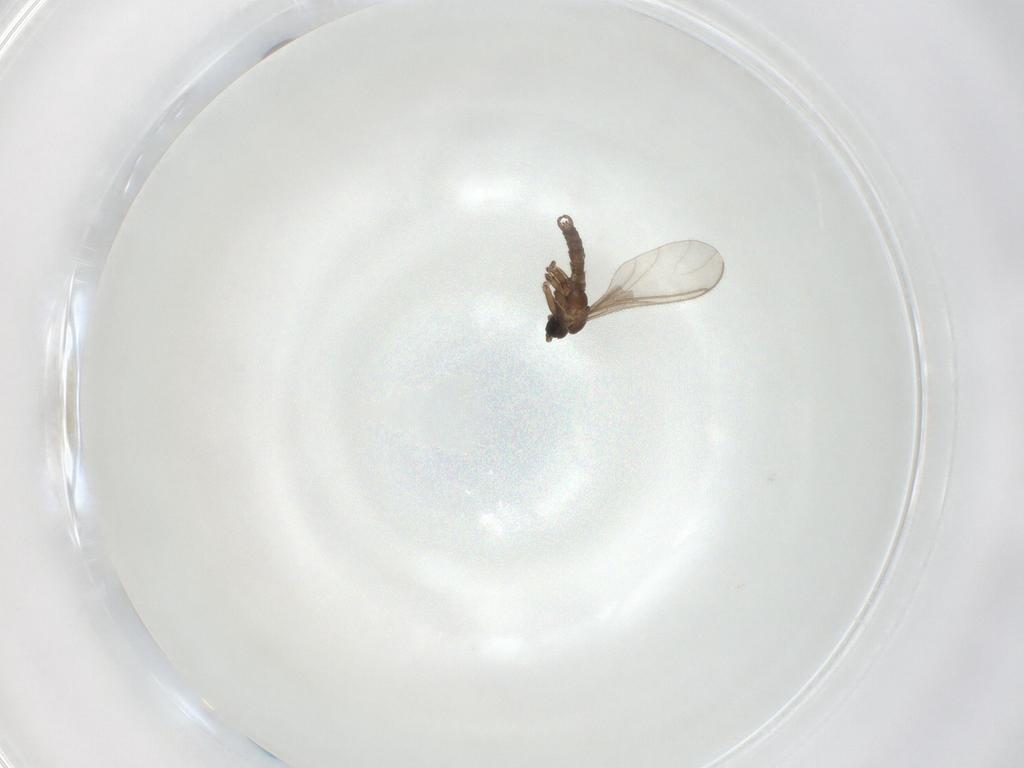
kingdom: Animalia
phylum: Arthropoda
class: Insecta
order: Diptera
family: Sciaridae
